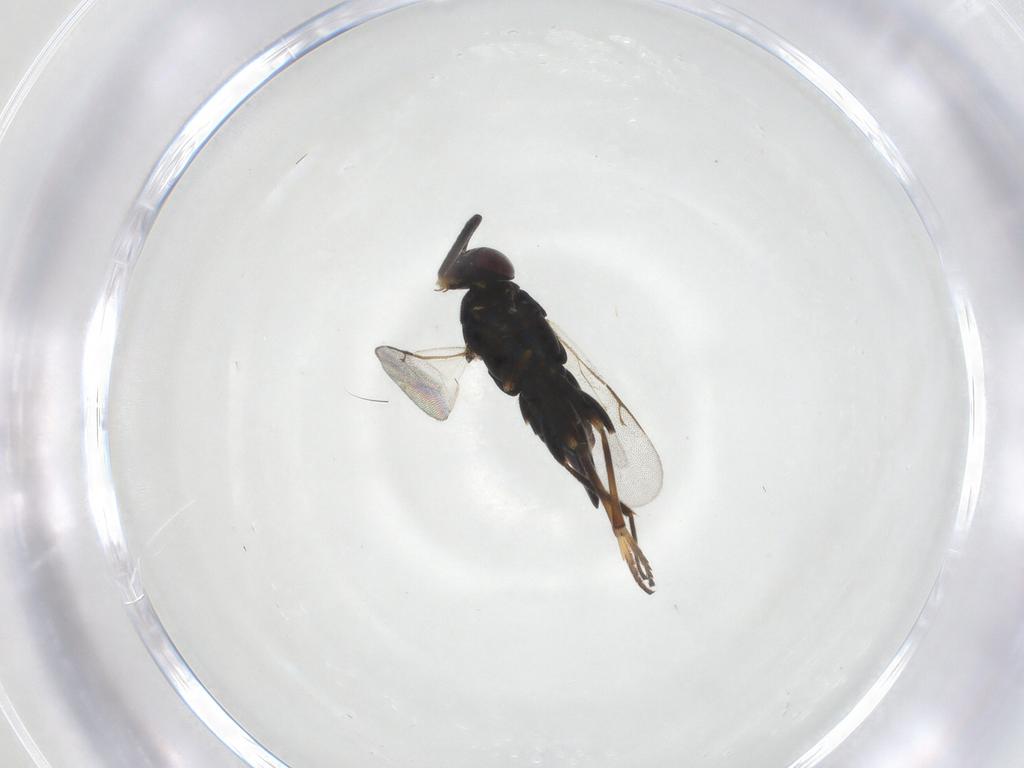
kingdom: Animalia
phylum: Arthropoda
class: Insecta
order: Hymenoptera
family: Encyrtidae
